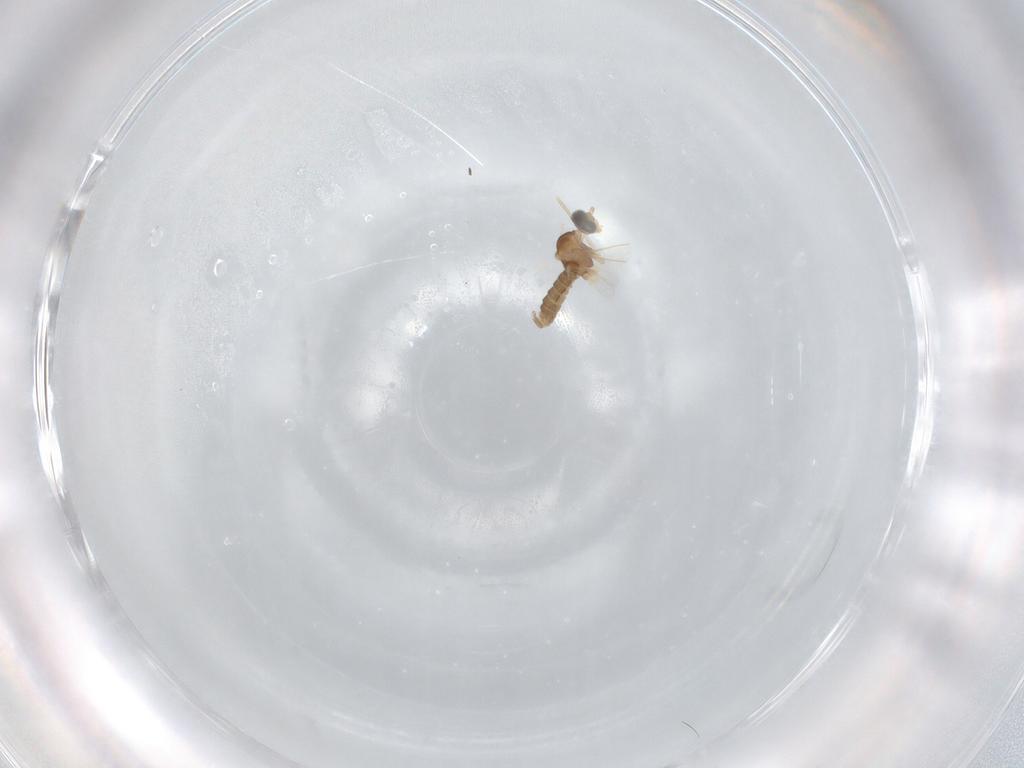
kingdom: Animalia
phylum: Arthropoda
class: Insecta
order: Diptera
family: Cecidomyiidae
